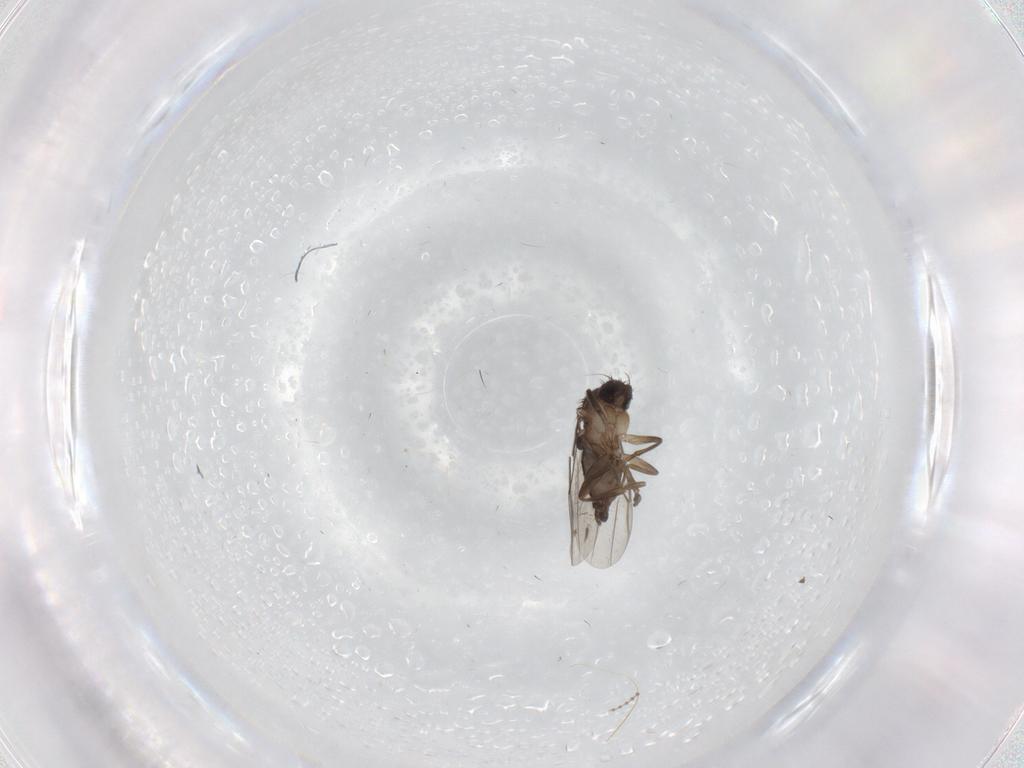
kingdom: Animalia
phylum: Arthropoda
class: Insecta
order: Diptera
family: Phoridae
